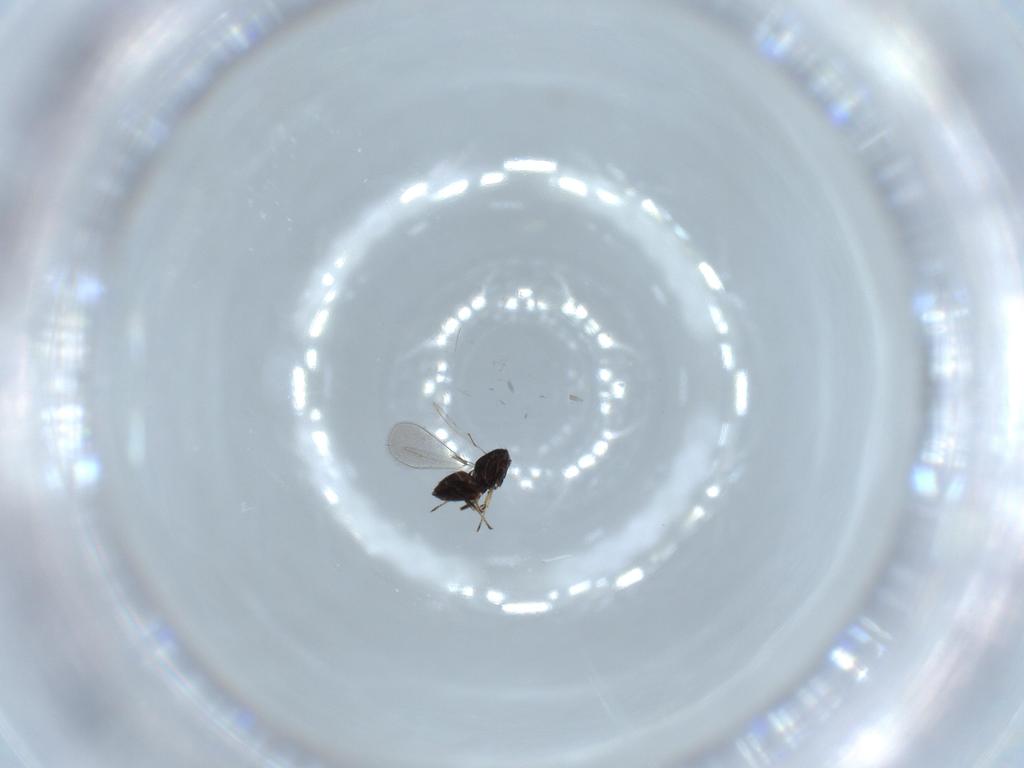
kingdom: Animalia
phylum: Arthropoda
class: Insecta
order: Hymenoptera
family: Mymaridae
